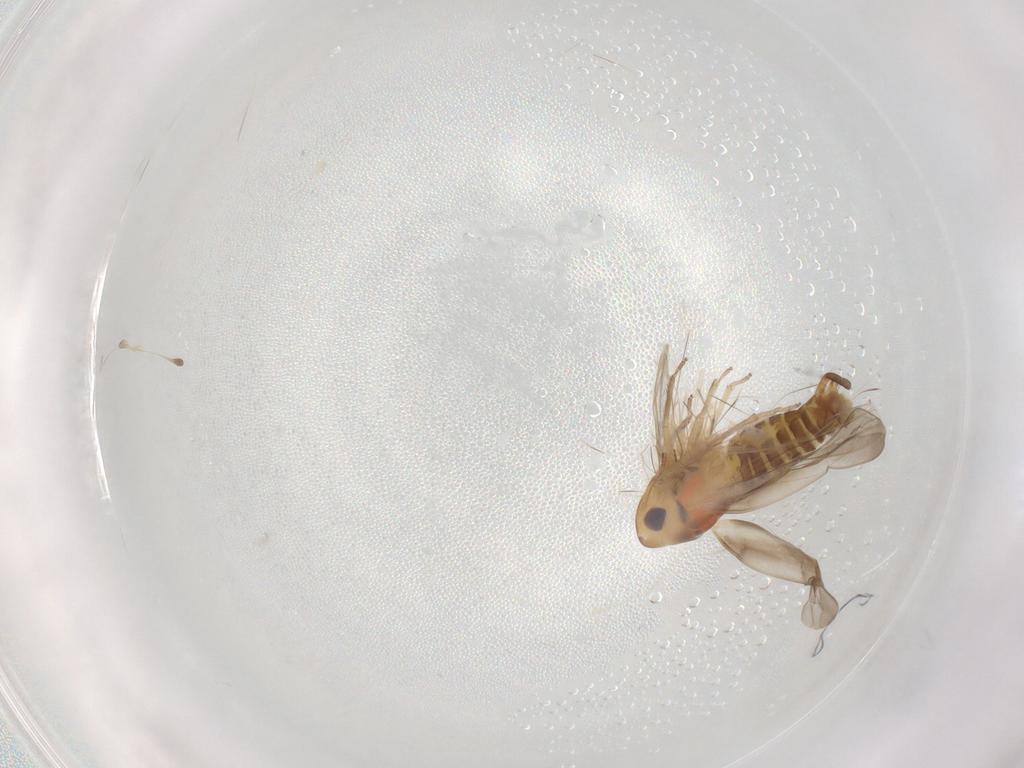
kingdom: Animalia
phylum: Arthropoda
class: Insecta
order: Hemiptera
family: Cicadellidae
